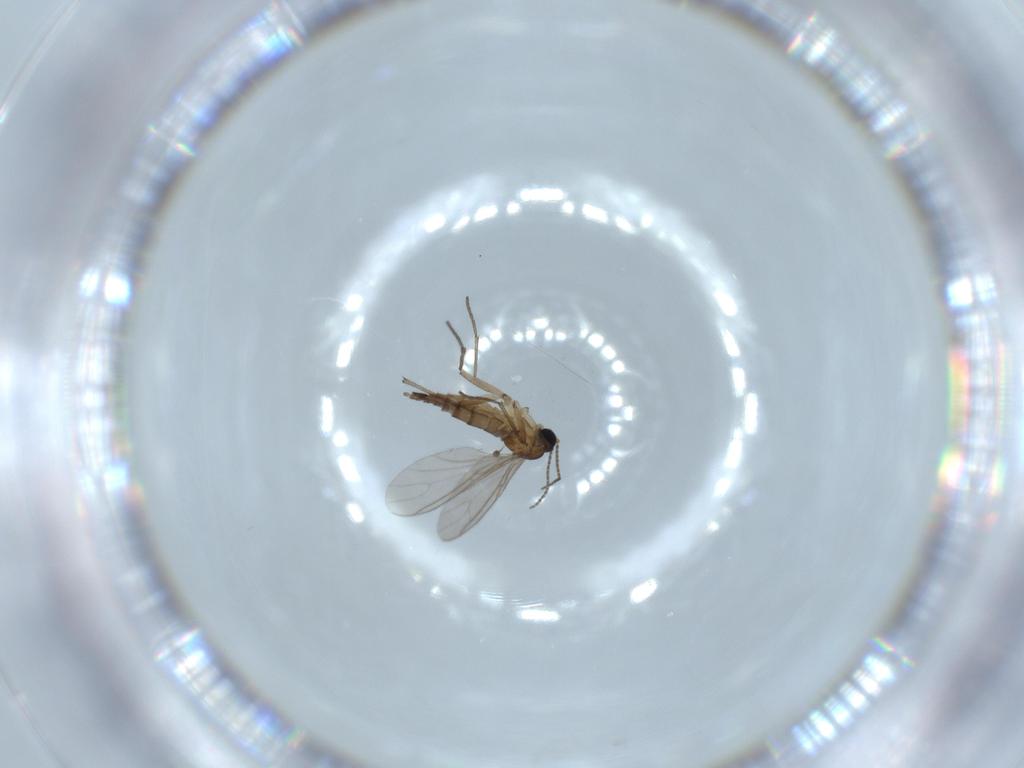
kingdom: Animalia
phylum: Arthropoda
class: Insecta
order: Diptera
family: Sciaridae
